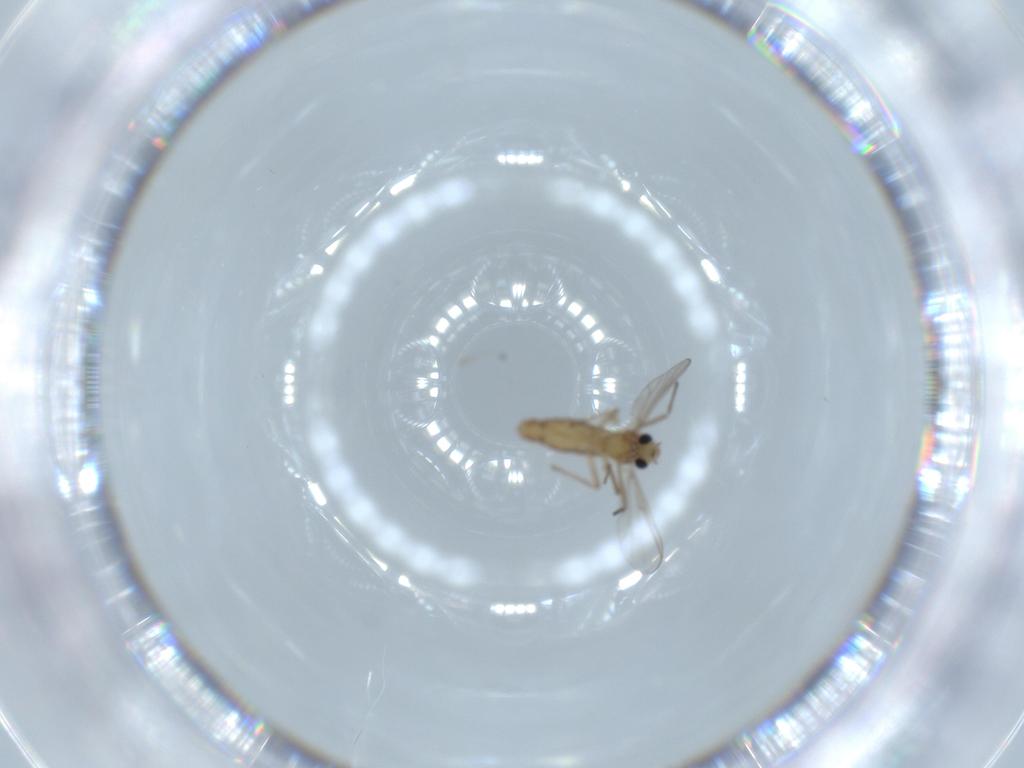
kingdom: Animalia
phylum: Arthropoda
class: Insecta
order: Diptera
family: Chironomidae
